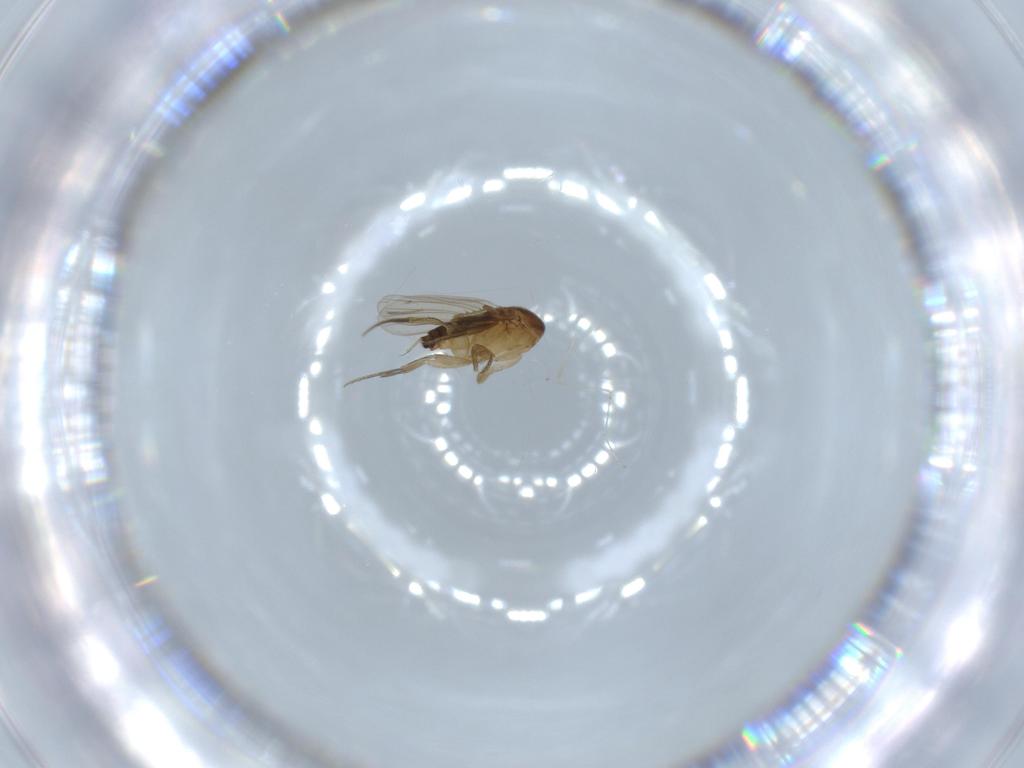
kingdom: Animalia
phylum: Arthropoda
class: Insecta
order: Diptera
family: Phoridae
